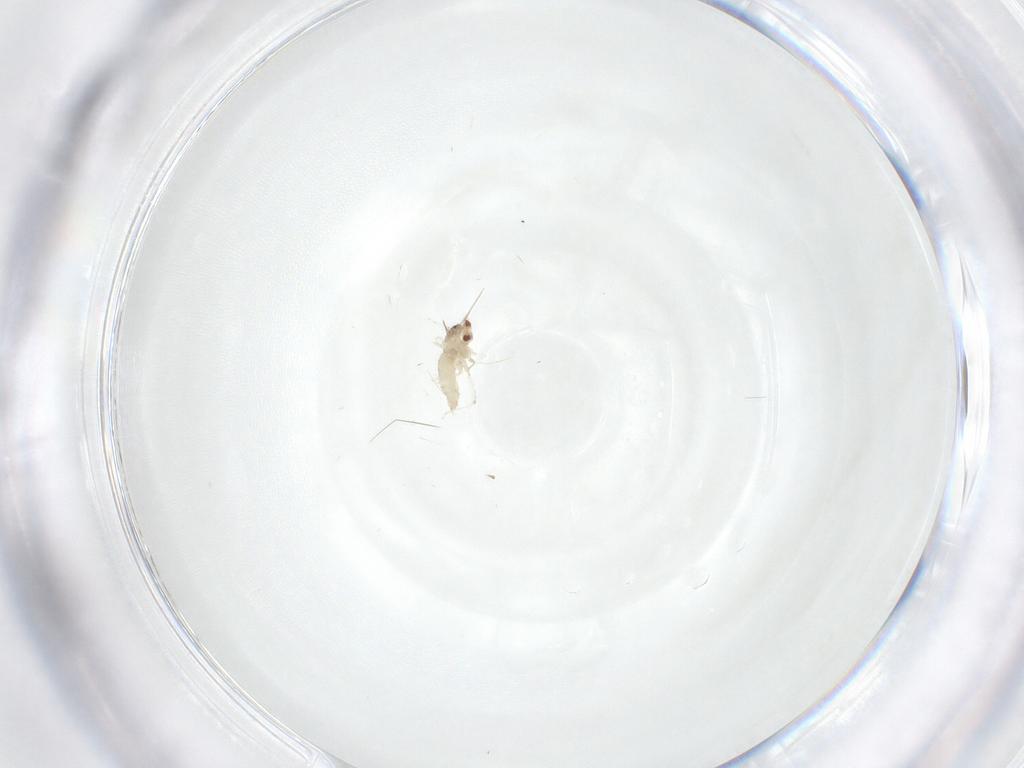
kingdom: Animalia
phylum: Arthropoda
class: Insecta
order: Diptera
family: Cecidomyiidae
